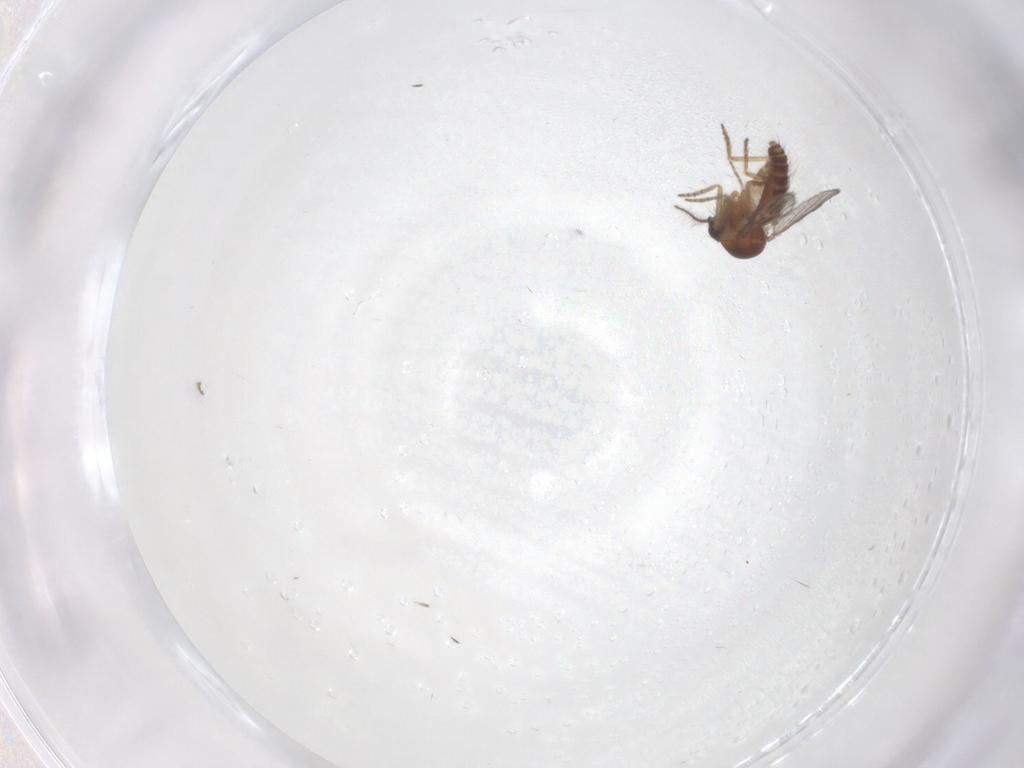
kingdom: Animalia
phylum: Arthropoda
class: Insecta
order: Diptera
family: Ceratopogonidae
